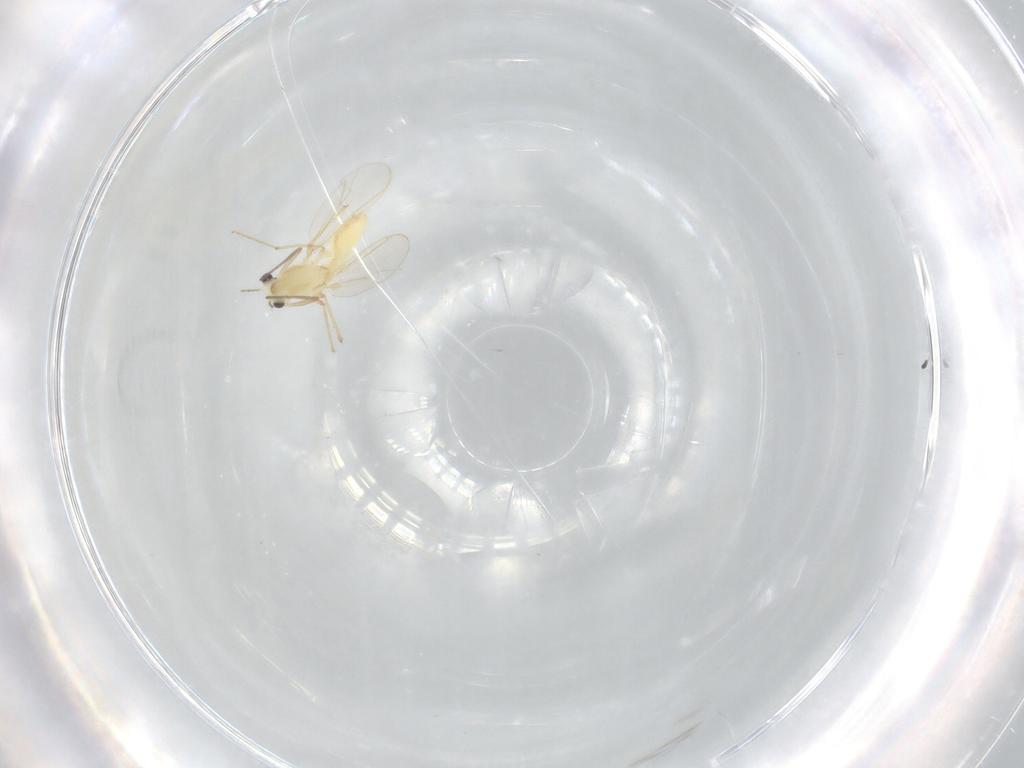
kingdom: Animalia
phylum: Arthropoda
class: Insecta
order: Diptera
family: Chironomidae
